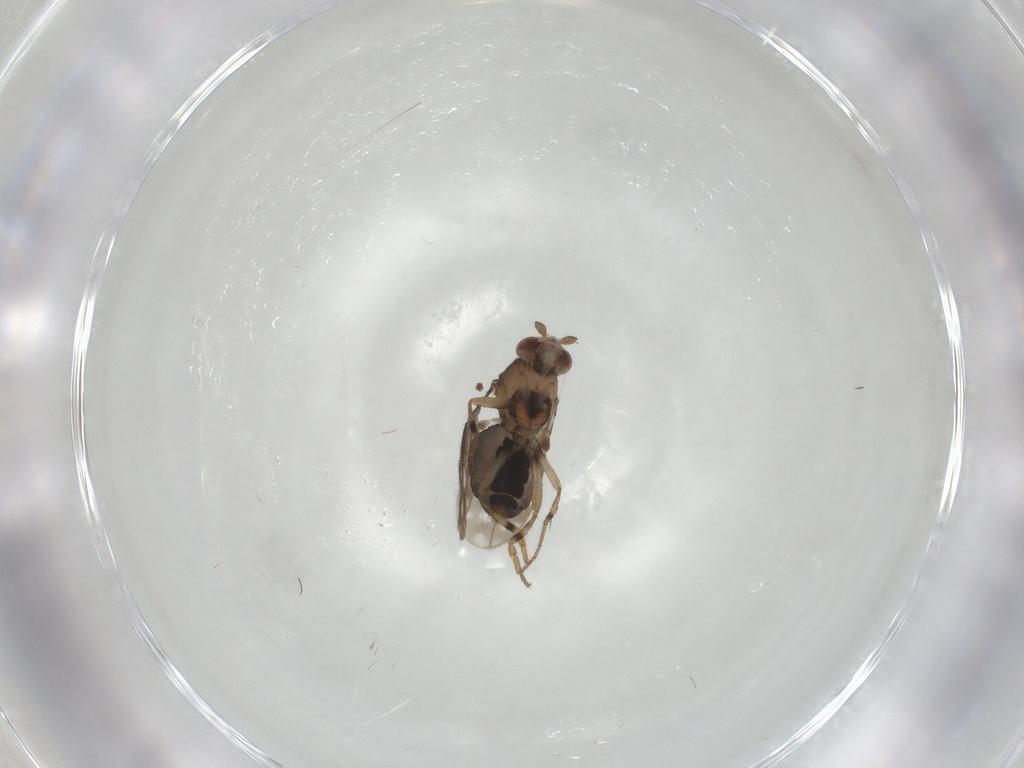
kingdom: Animalia
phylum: Arthropoda
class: Insecta
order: Diptera
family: Sphaeroceridae
